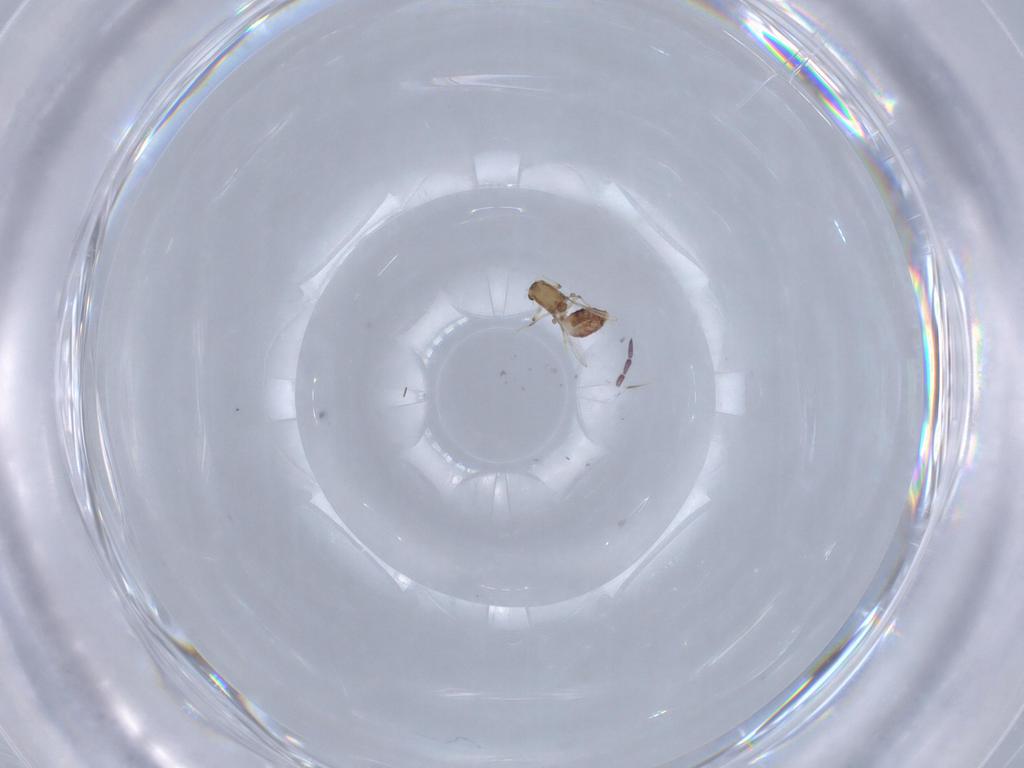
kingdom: Animalia
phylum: Arthropoda
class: Insecta
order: Diptera
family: Chironomidae
